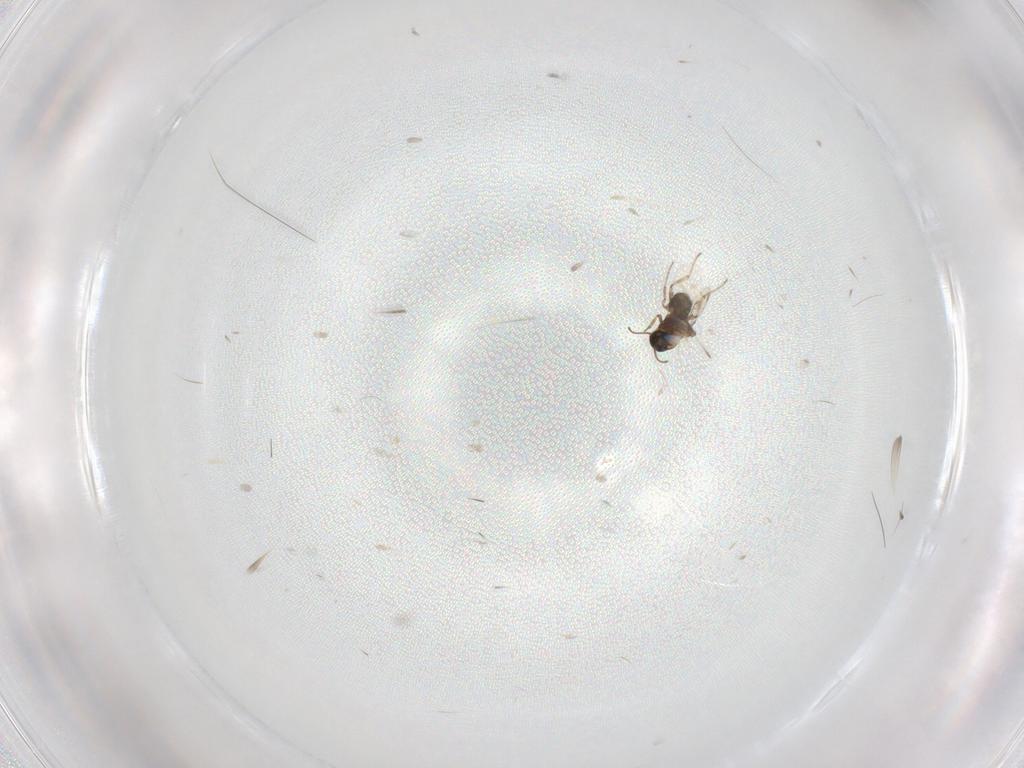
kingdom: Animalia
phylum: Arthropoda
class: Insecta
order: Diptera
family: Ceratopogonidae
